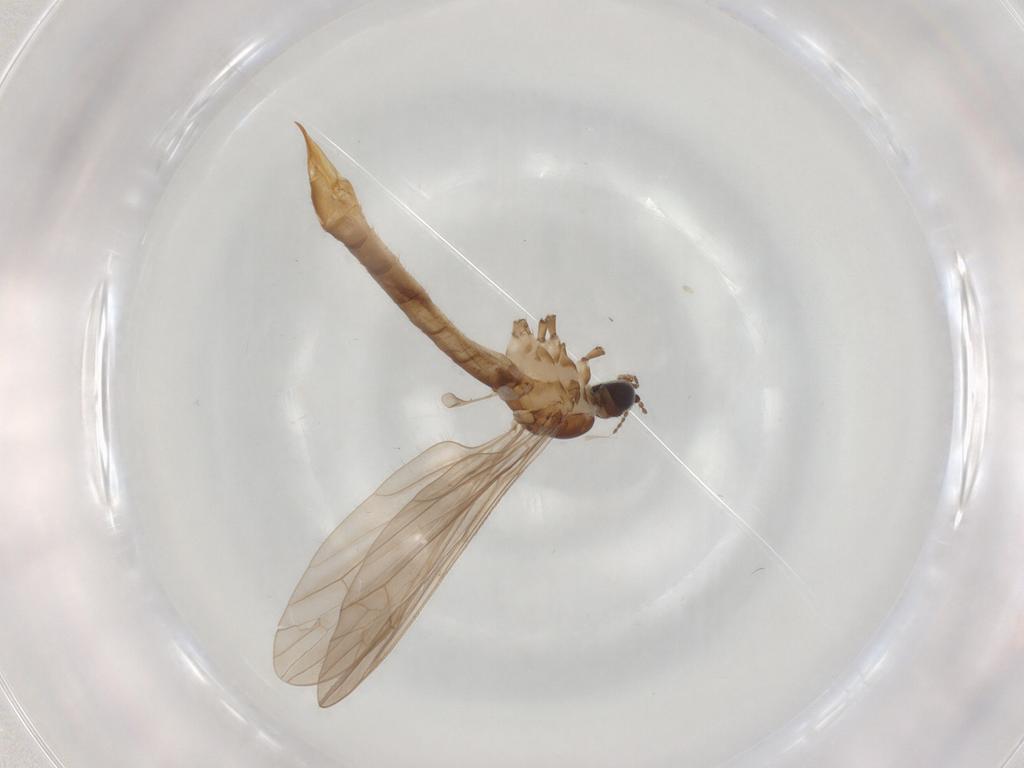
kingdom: Animalia
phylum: Arthropoda
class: Insecta
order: Diptera
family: Limoniidae
